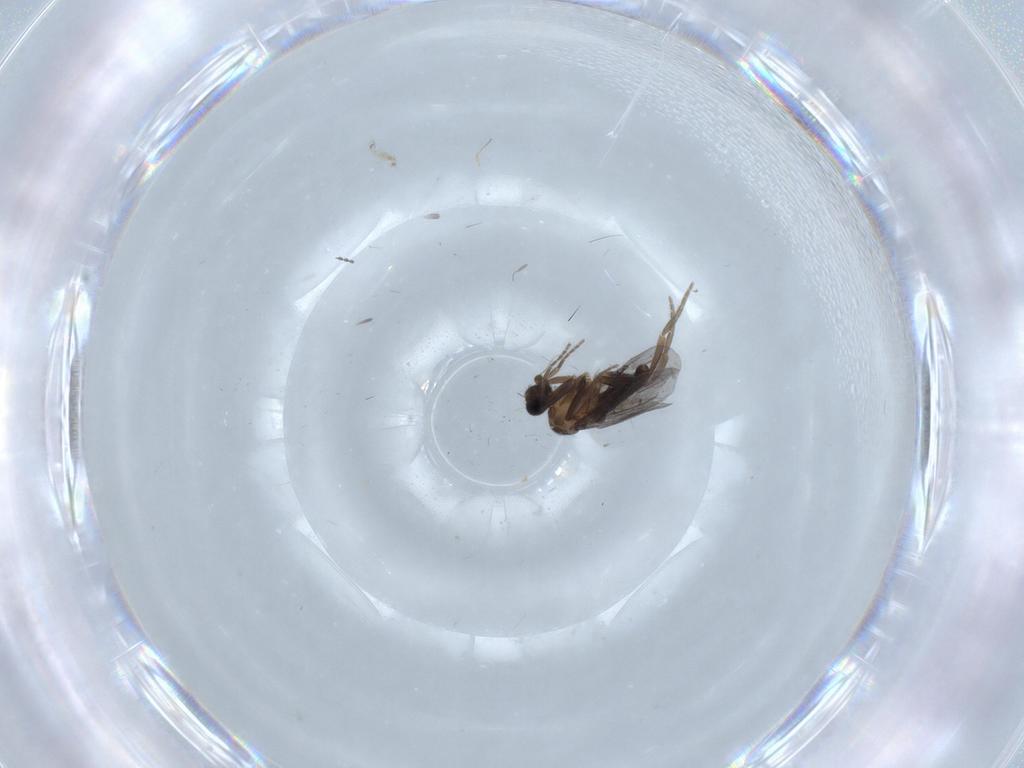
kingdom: Animalia
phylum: Arthropoda
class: Insecta
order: Diptera
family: Phoridae
